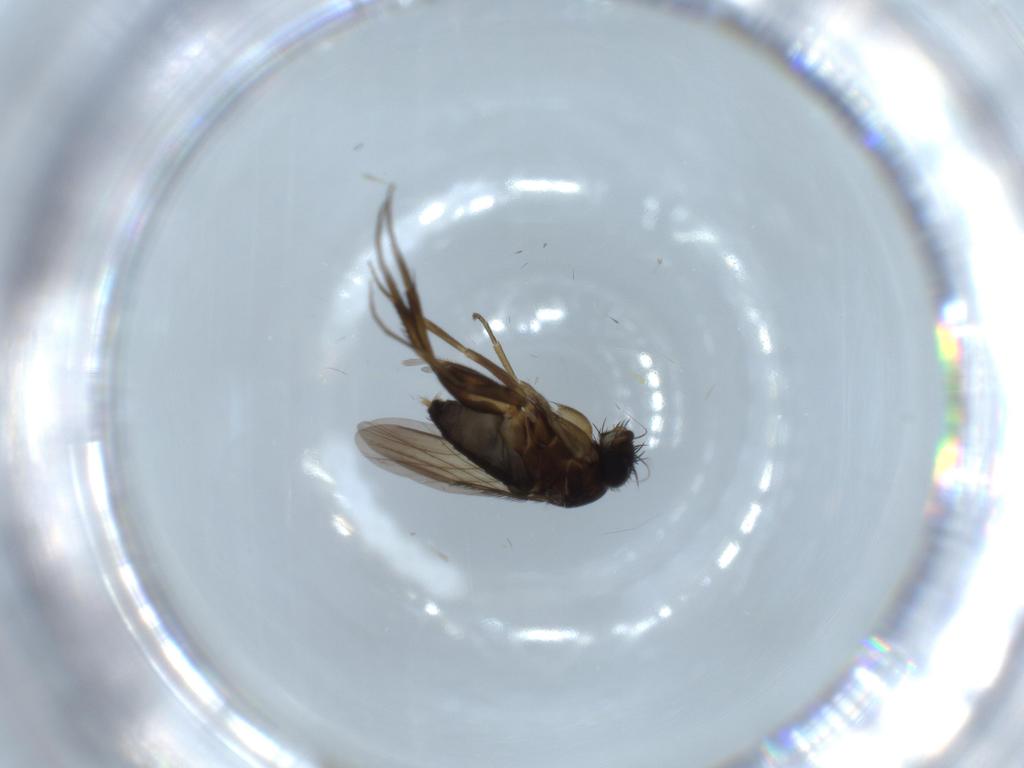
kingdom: Animalia
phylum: Arthropoda
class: Insecta
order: Diptera
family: Phoridae
